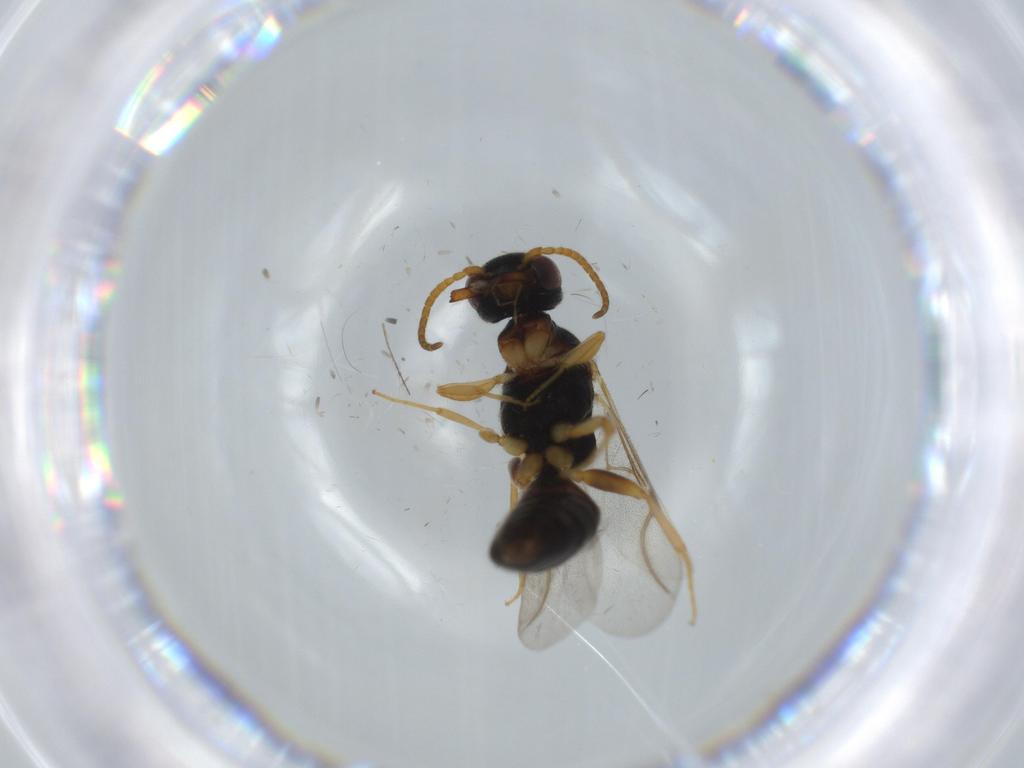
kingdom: Animalia
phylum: Arthropoda
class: Insecta
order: Hymenoptera
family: Bethylidae
